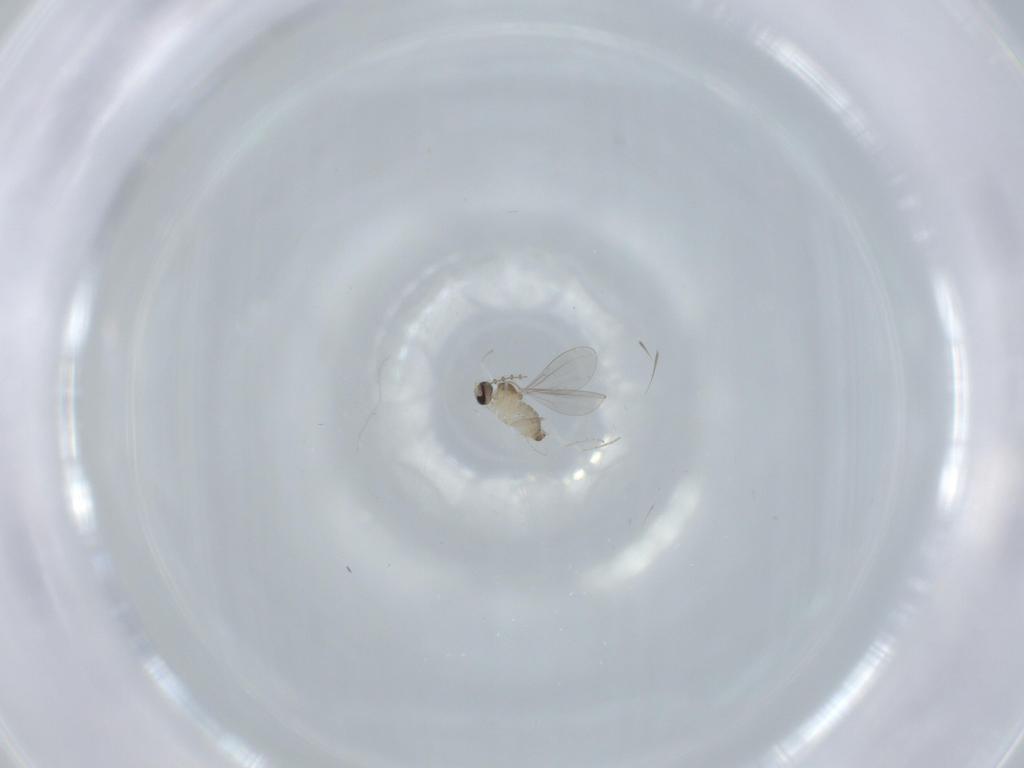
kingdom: Animalia
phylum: Arthropoda
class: Insecta
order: Diptera
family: Cecidomyiidae
